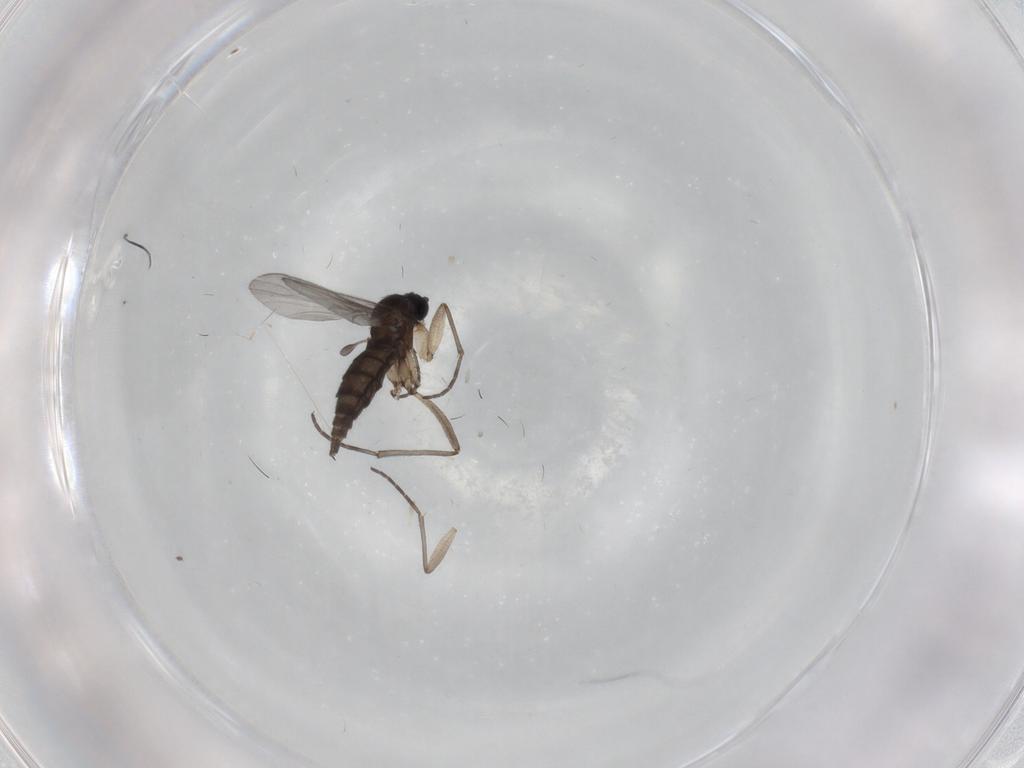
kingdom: Animalia
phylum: Arthropoda
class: Insecta
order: Diptera
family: Sciaridae
